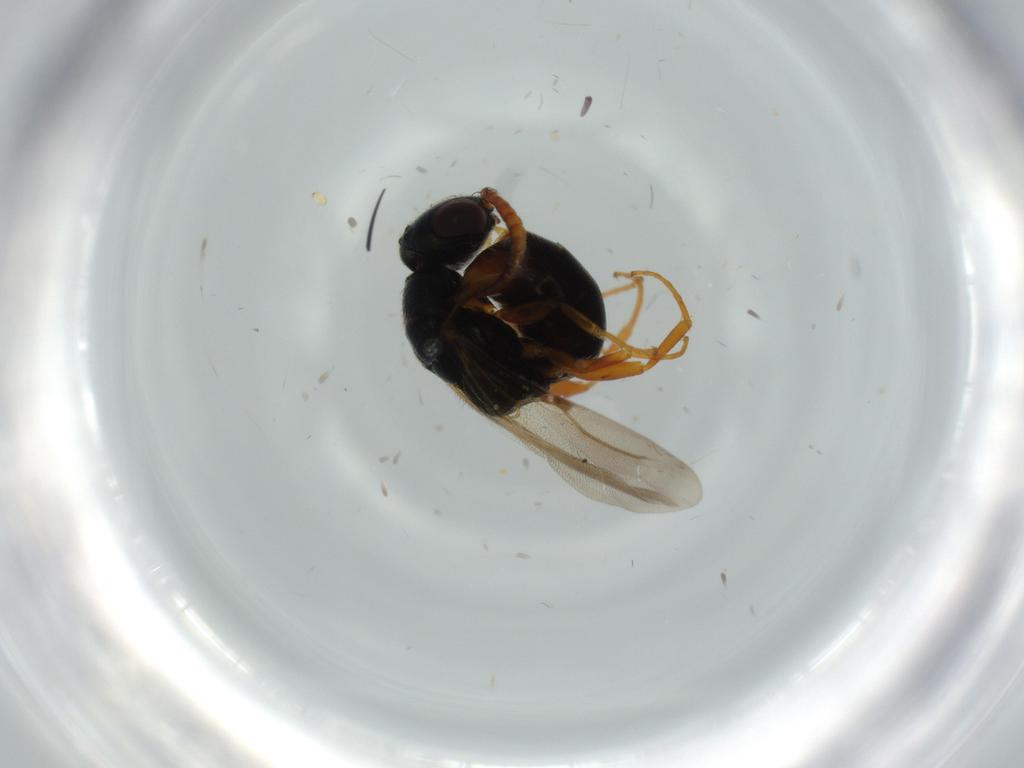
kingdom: Animalia
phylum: Arthropoda
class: Insecta
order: Hymenoptera
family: Bethylidae
